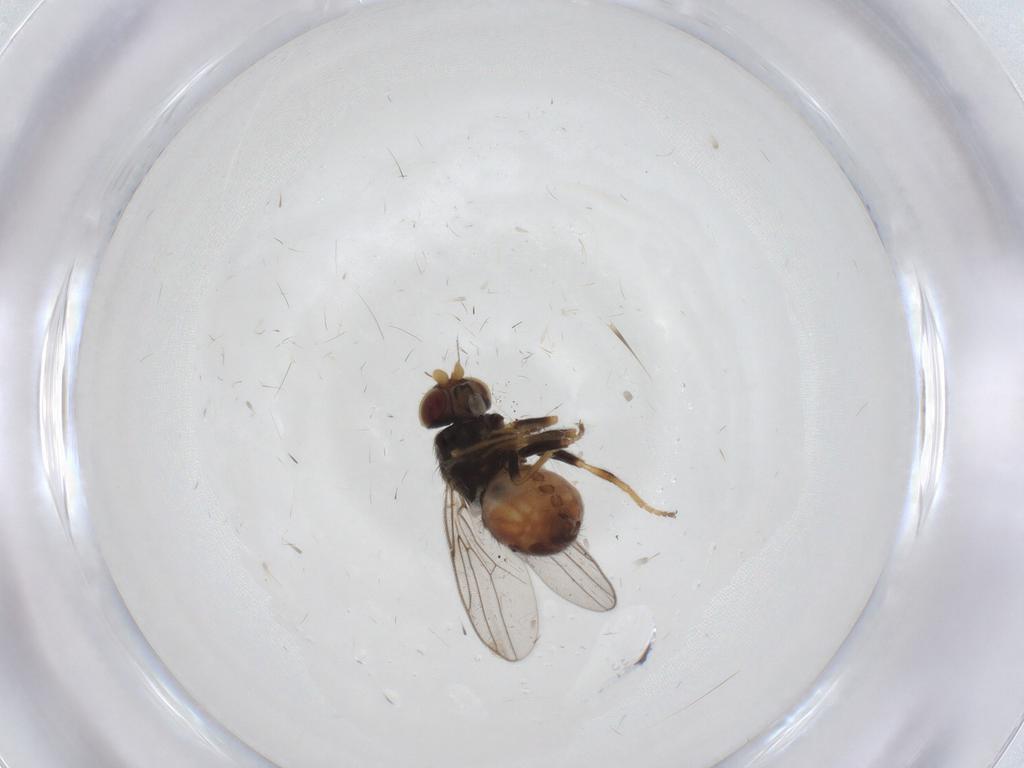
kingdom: Animalia
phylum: Arthropoda
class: Insecta
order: Diptera
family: Chloropidae
